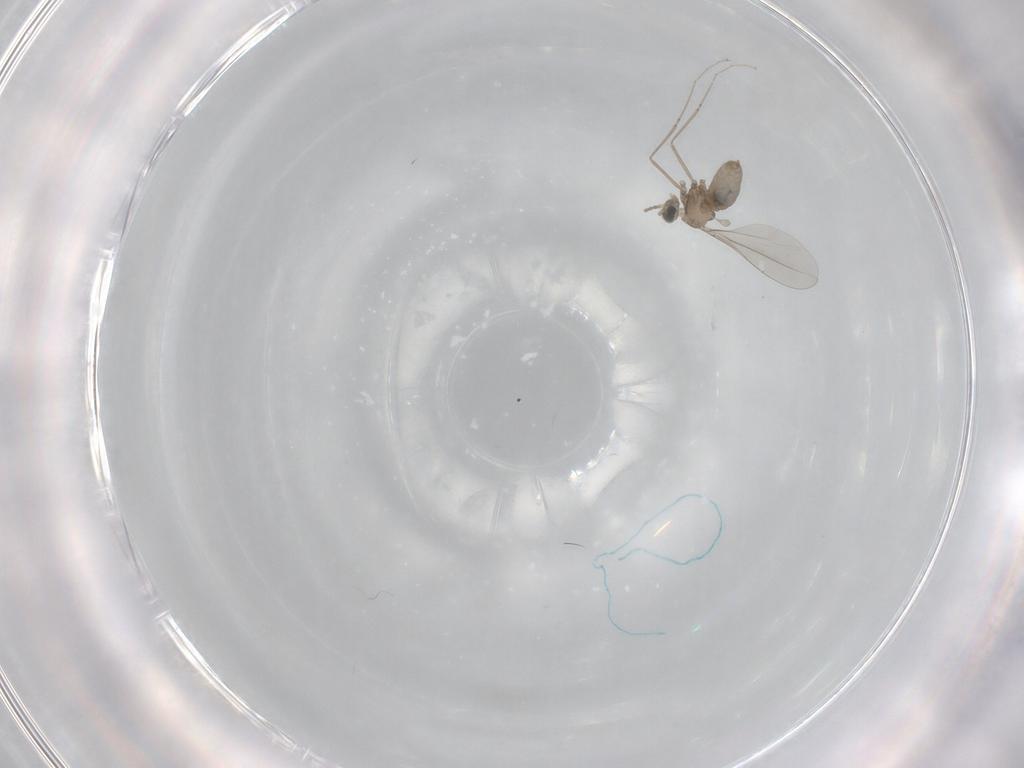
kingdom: Animalia
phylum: Arthropoda
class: Insecta
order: Diptera
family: Cecidomyiidae
